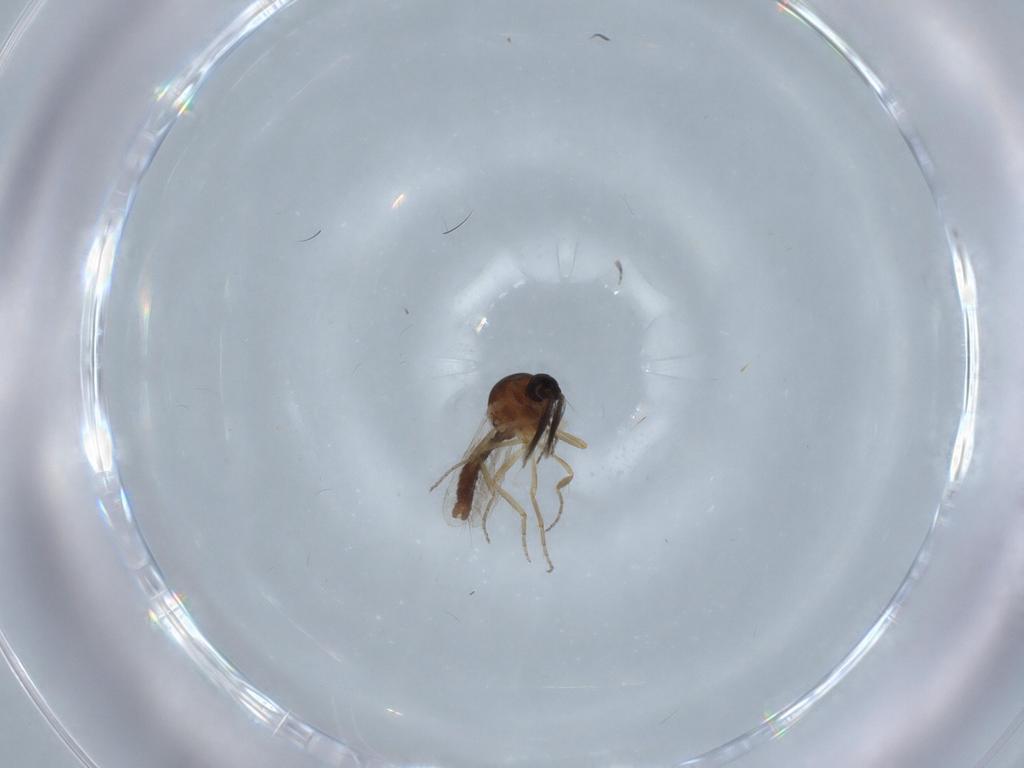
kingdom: Animalia
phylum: Arthropoda
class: Insecta
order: Diptera
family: Ceratopogonidae
